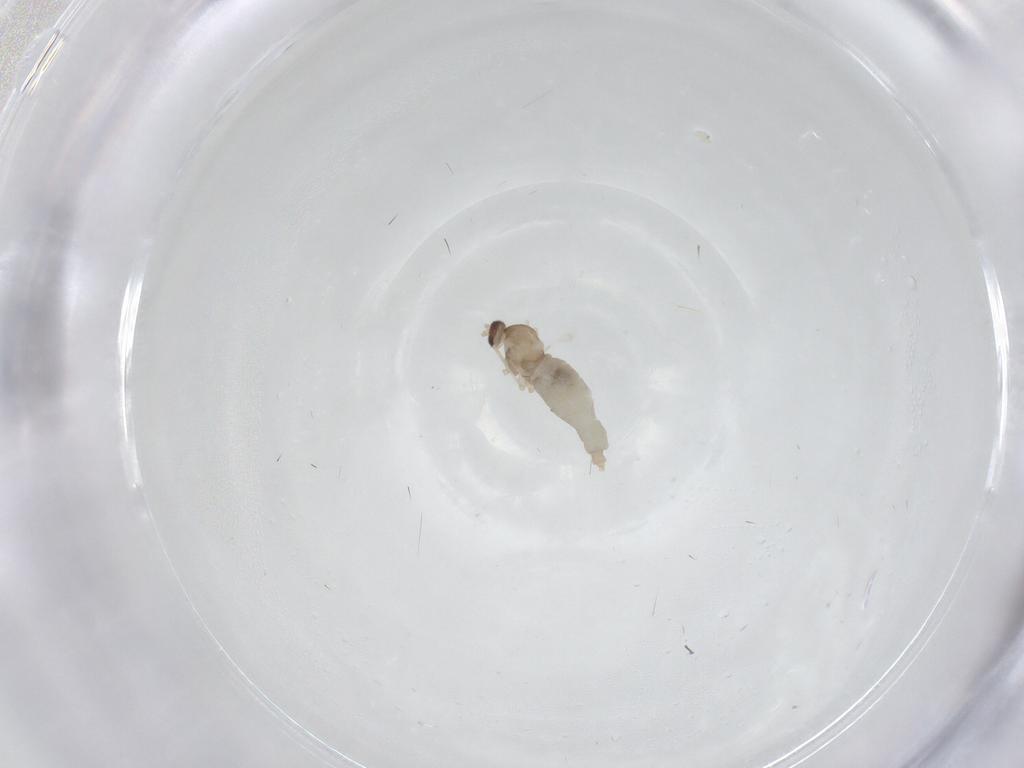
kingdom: Animalia
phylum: Arthropoda
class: Insecta
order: Diptera
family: Cecidomyiidae
